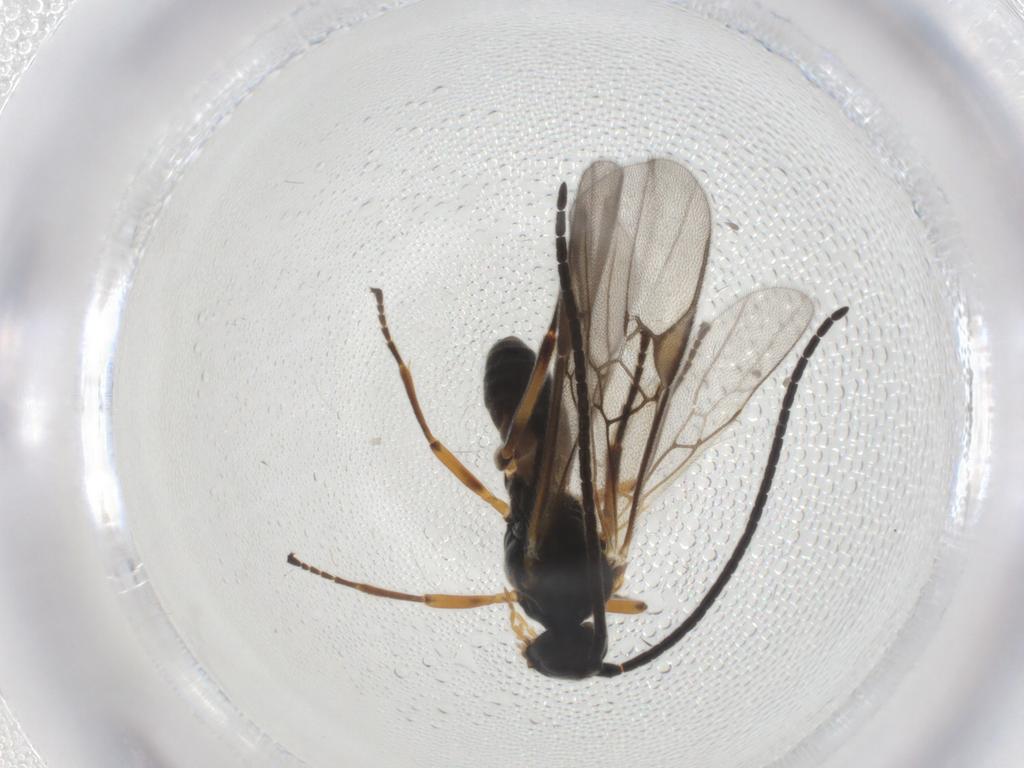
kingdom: Animalia
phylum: Arthropoda
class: Insecta
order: Hymenoptera
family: Braconidae
